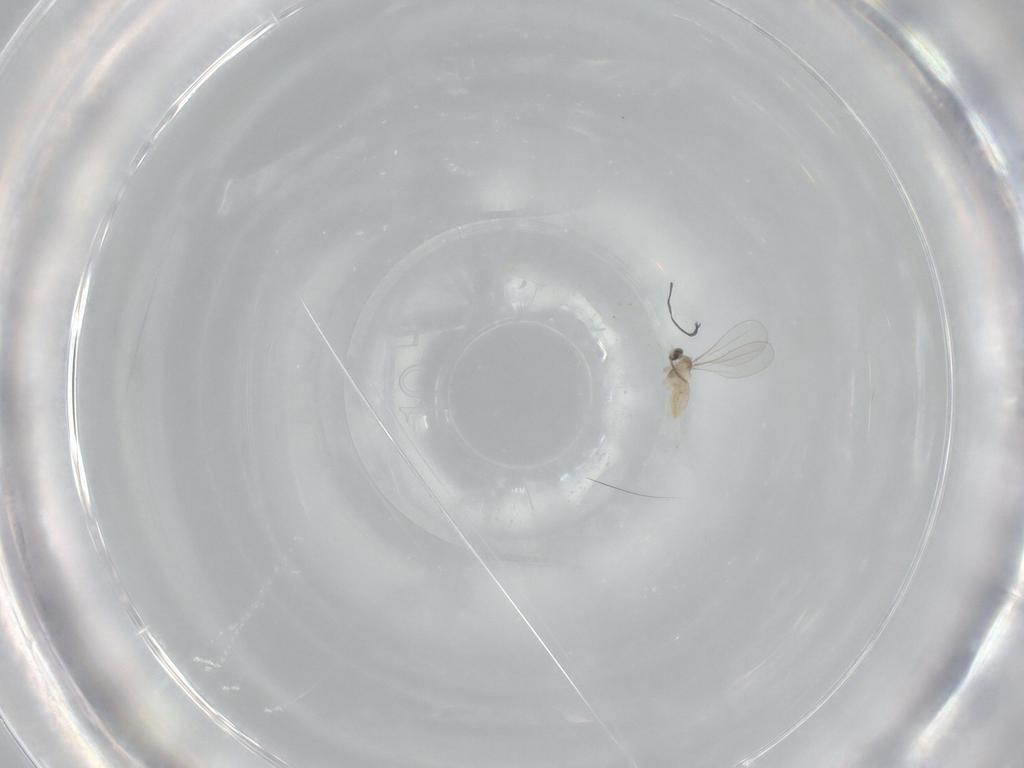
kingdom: Animalia
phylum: Arthropoda
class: Insecta
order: Diptera
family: Cecidomyiidae
